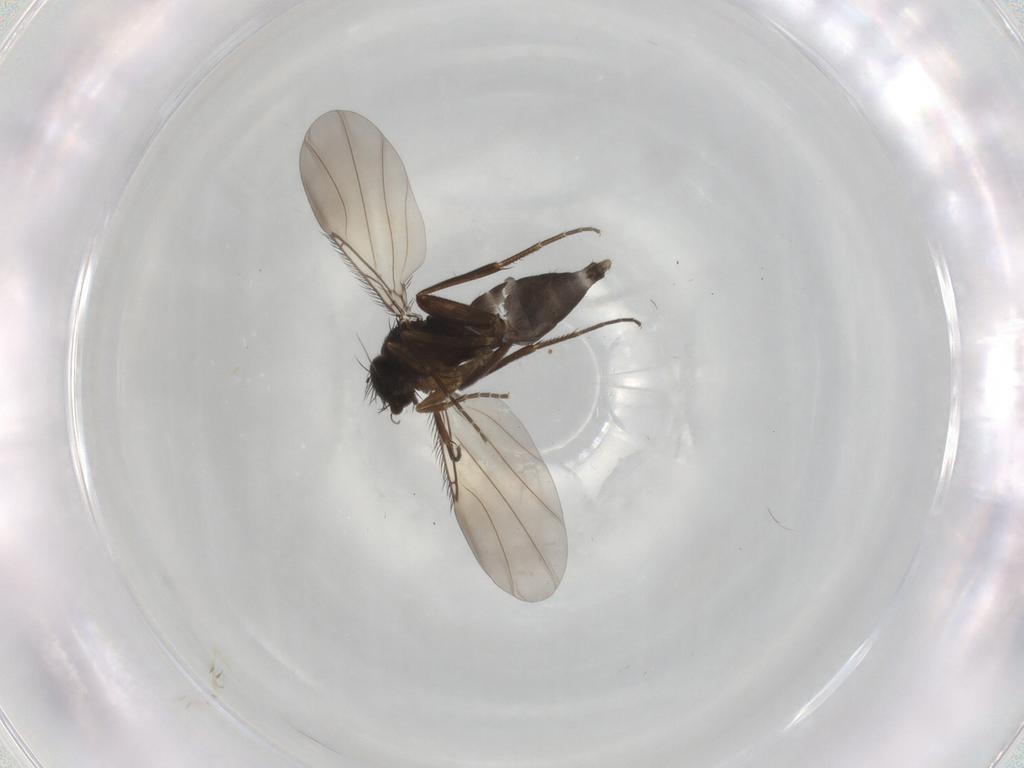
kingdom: Animalia
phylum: Arthropoda
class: Insecta
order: Diptera
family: Phoridae
